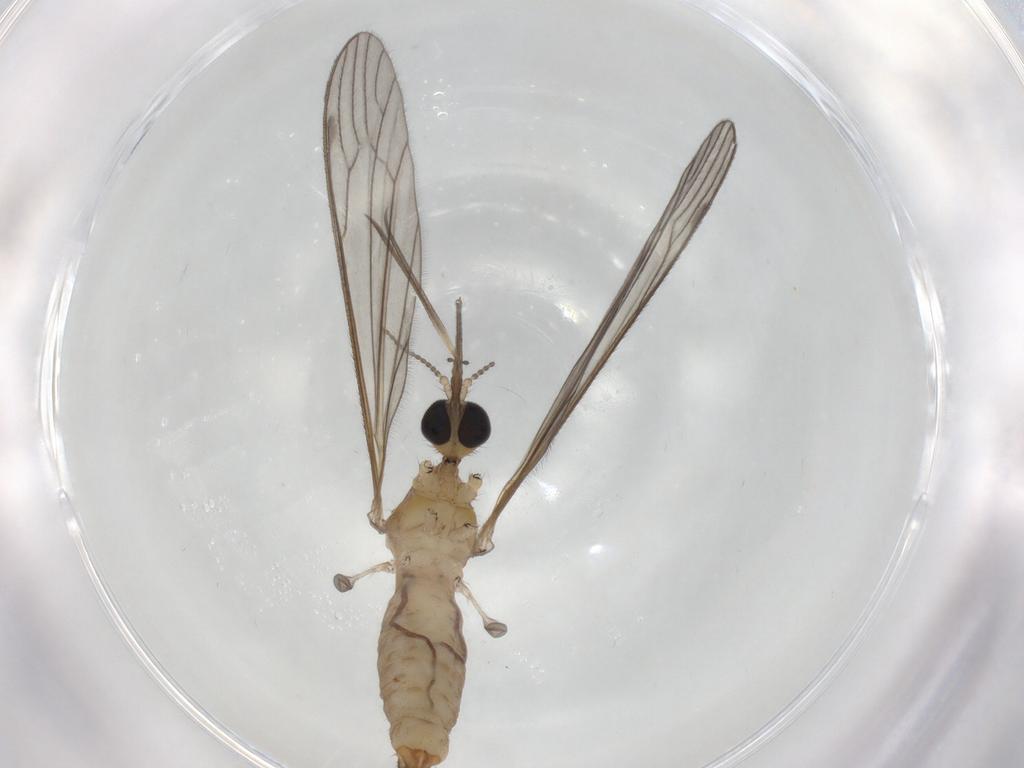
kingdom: Animalia
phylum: Arthropoda
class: Insecta
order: Diptera
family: Limoniidae
